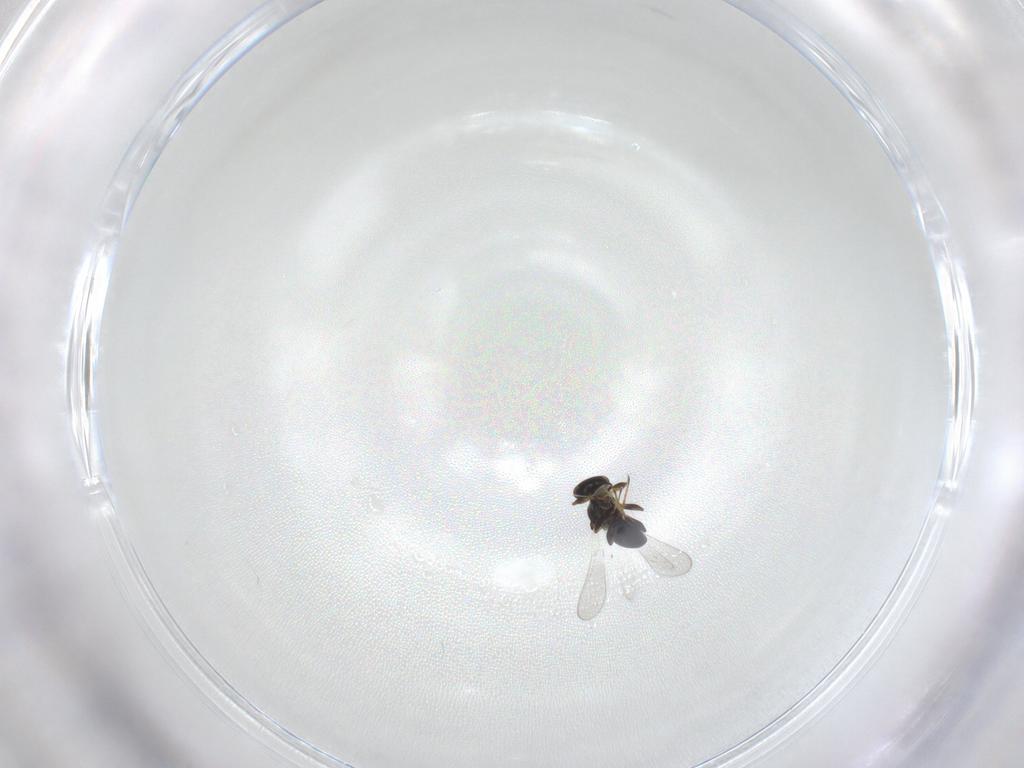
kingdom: Animalia
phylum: Arthropoda
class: Insecta
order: Hymenoptera
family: Platygastridae
